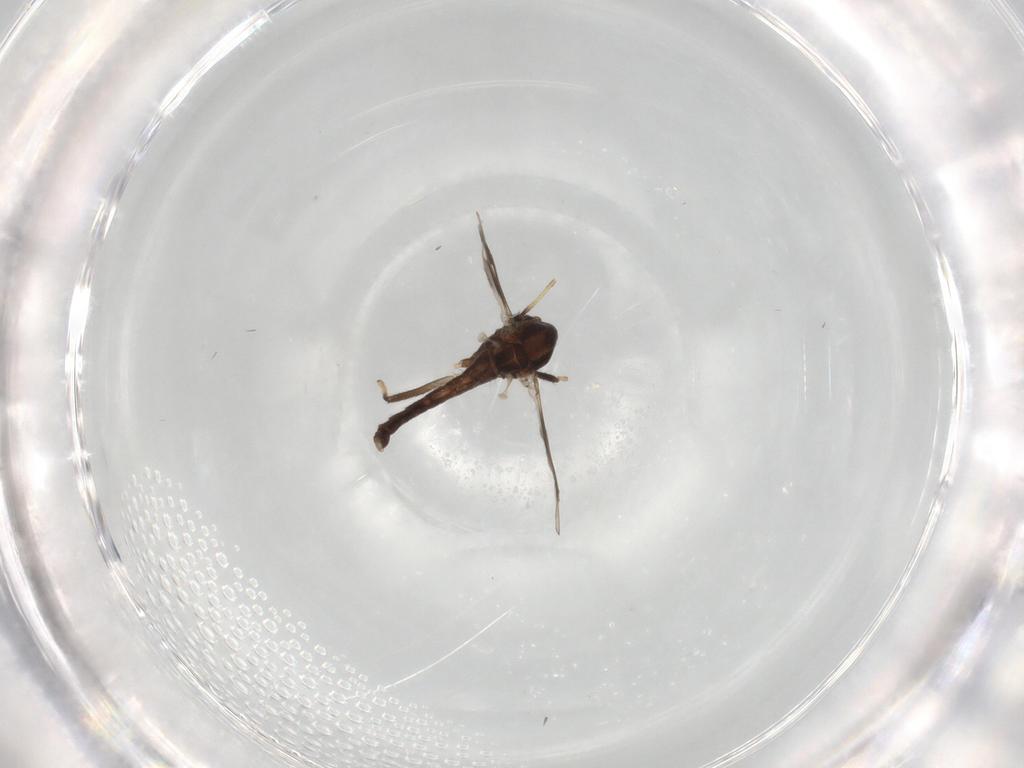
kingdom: Animalia
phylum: Arthropoda
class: Insecta
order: Diptera
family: Chironomidae
